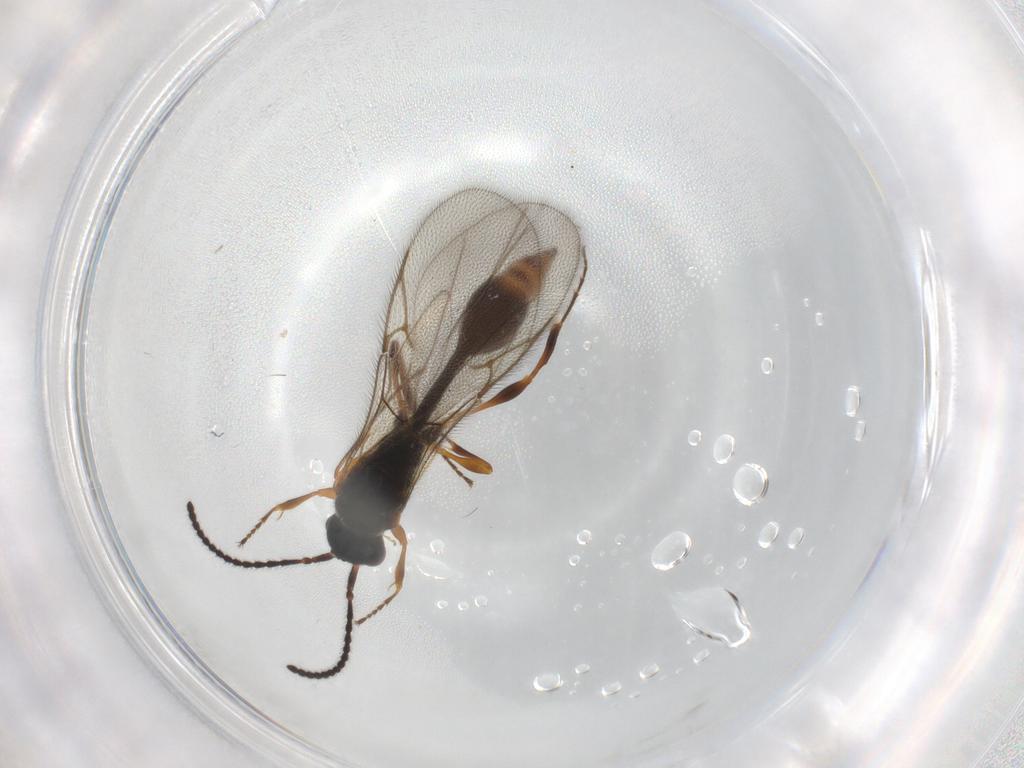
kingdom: Animalia
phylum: Arthropoda
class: Insecta
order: Hymenoptera
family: Diapriidae
